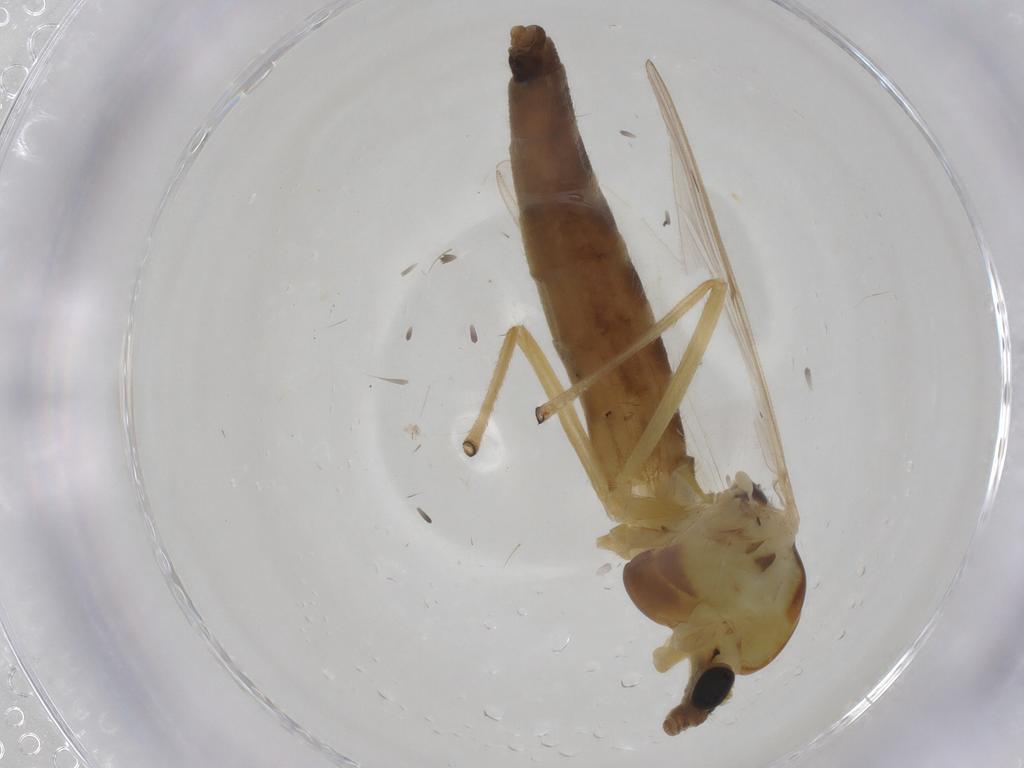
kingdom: Animalia
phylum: Arthropoda
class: Insecta
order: Diptera
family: Chironomidae
